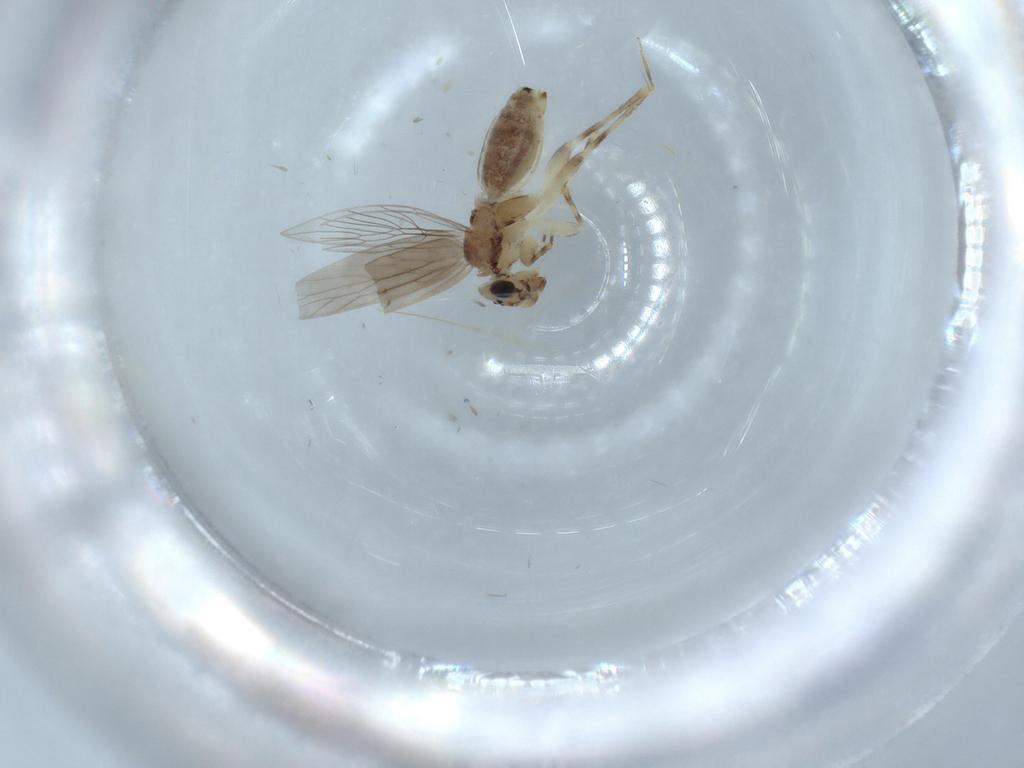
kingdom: Animalia
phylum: Arthropoda
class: Insecta
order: Psocodea
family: Lepidopsocidae
